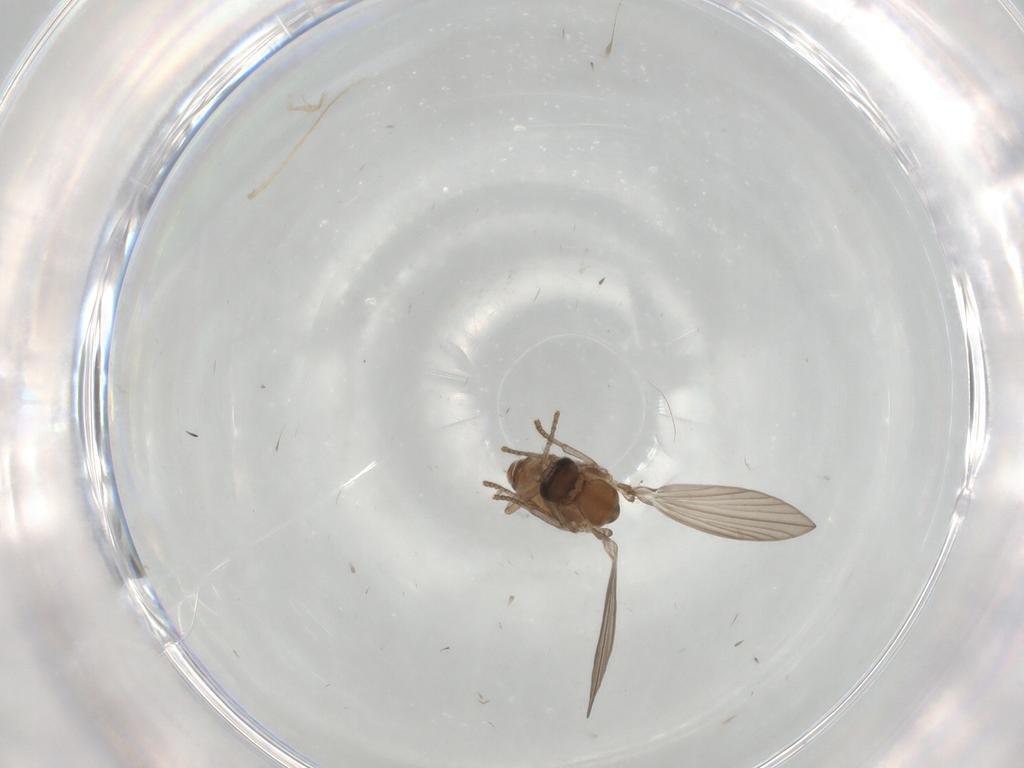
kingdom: Animalia
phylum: Arthropoda
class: Insecta
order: Diptera
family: Psychodidae
